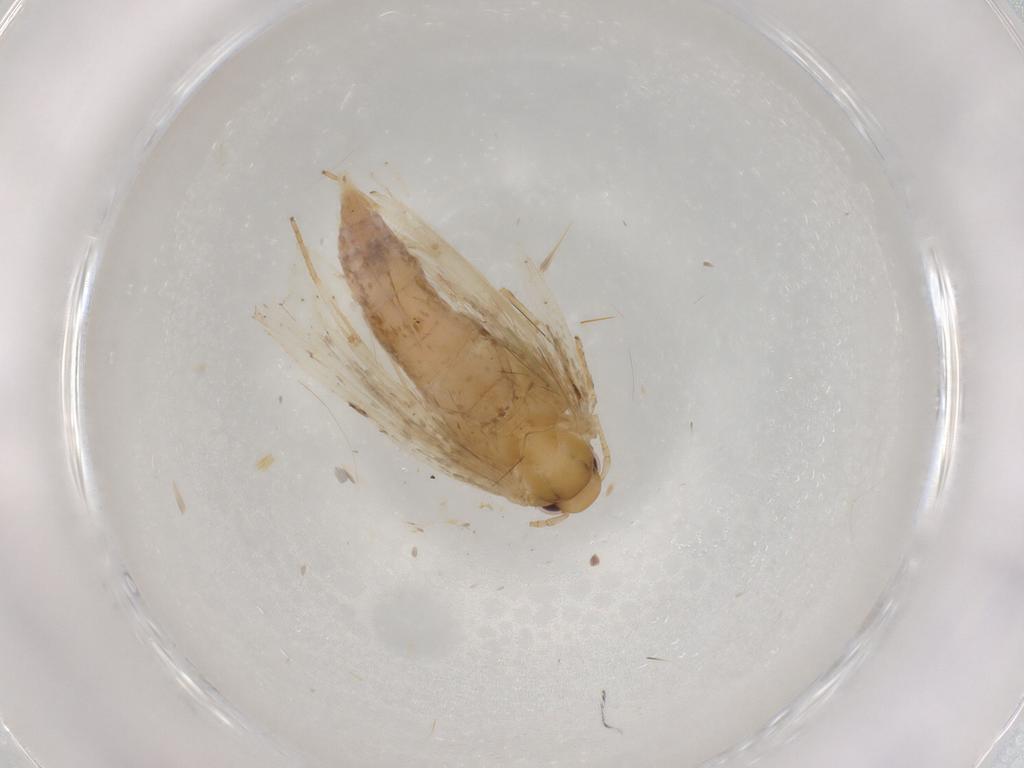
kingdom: Animalia
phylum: Arthropoda
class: Insecta
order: Lepidoptera
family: Depressariidae
